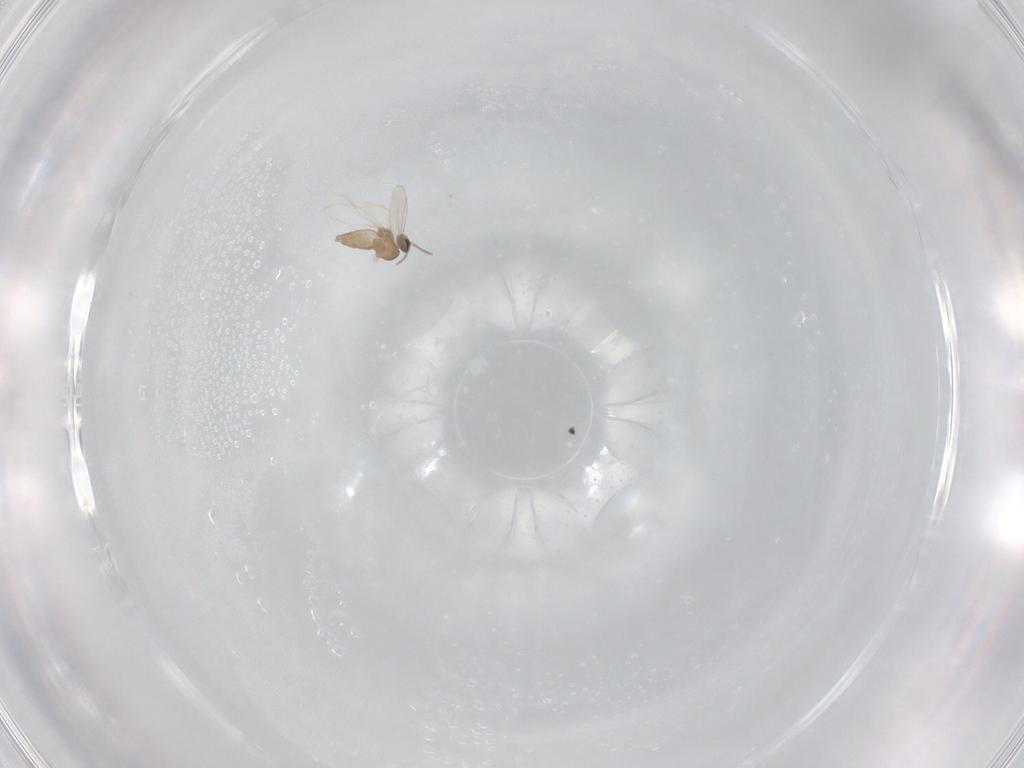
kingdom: Animalia
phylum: Arthropoda
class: Insecta
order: Diptera
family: Cecidomyiidae
